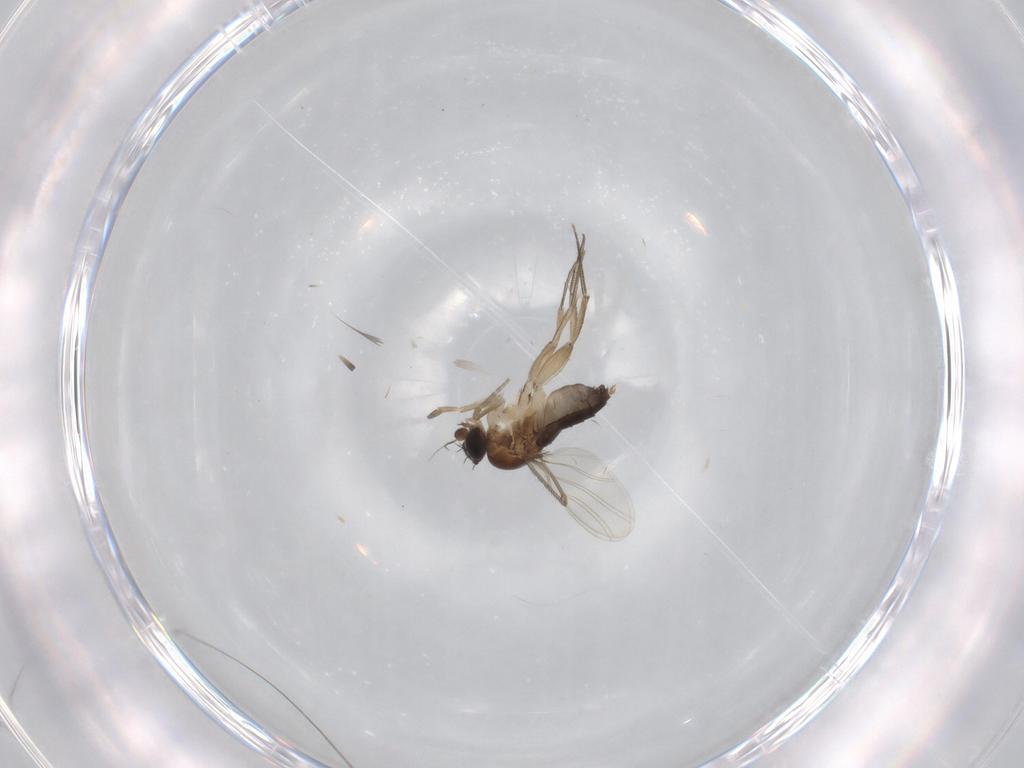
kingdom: Animalia
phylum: Arthropoda
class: Insecta
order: Diptera
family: Phoridae
